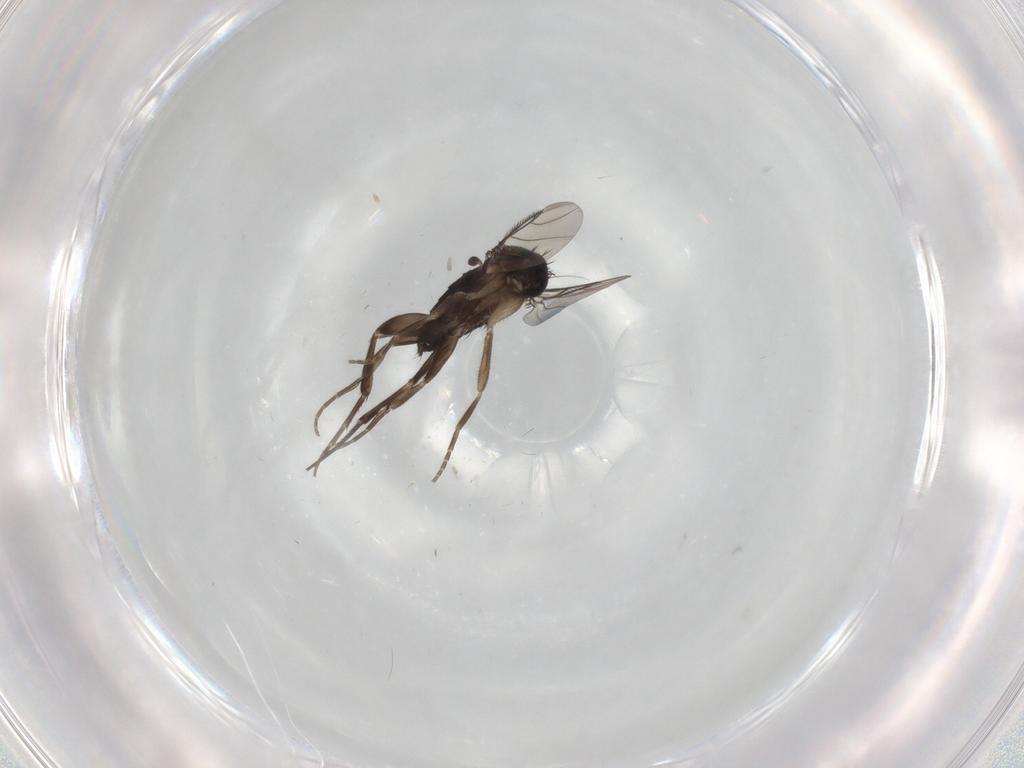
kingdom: Animalia
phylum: Arthropoda
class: Insecta
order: Diptera
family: Phoridae
